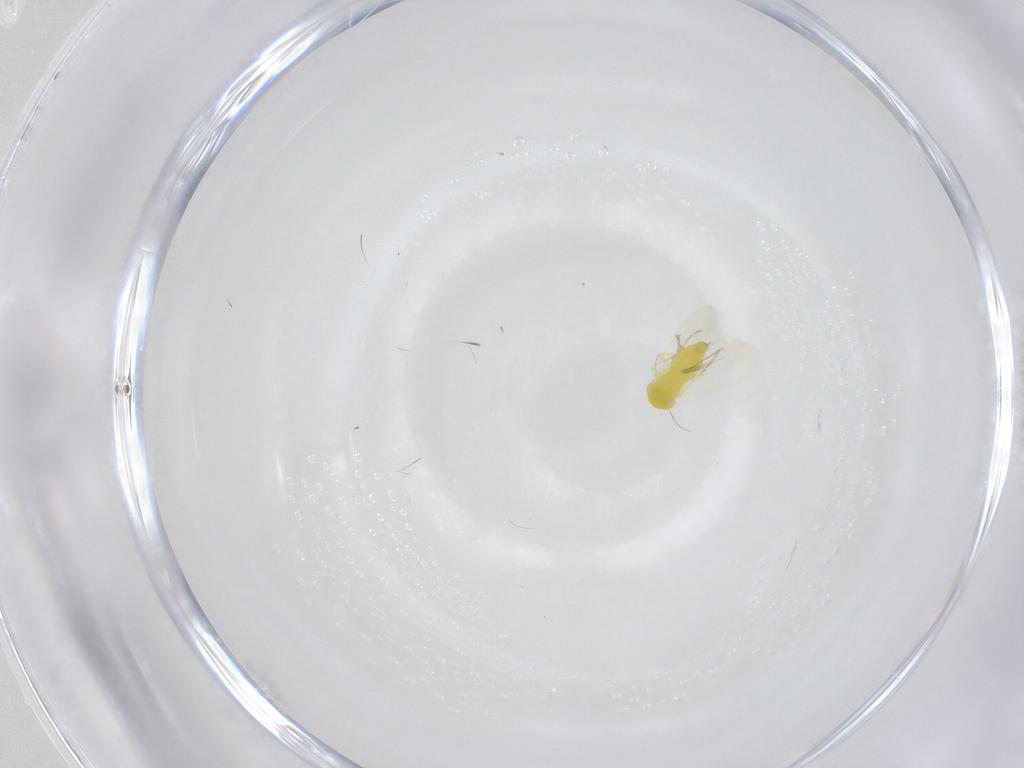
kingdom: Animalia
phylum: Arthropoda
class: Insecta
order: Hemiptera
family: Aleyrodidae
